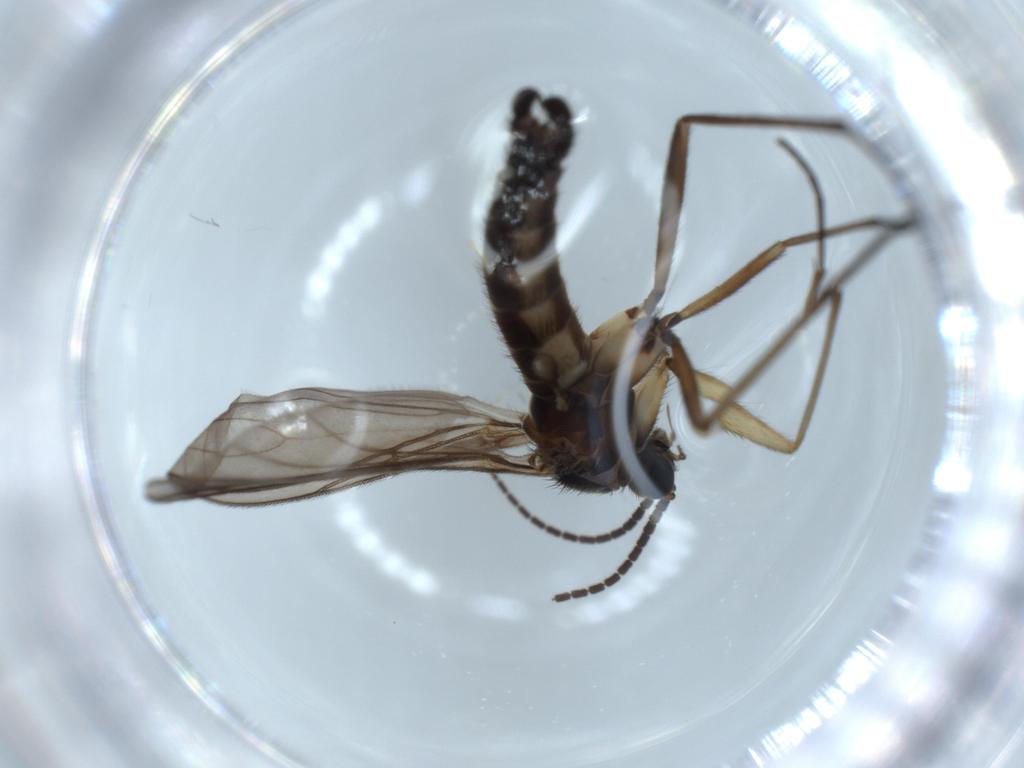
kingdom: Animalia
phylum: Arthropoda
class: Insecta
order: Diptera
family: Sciaridae
